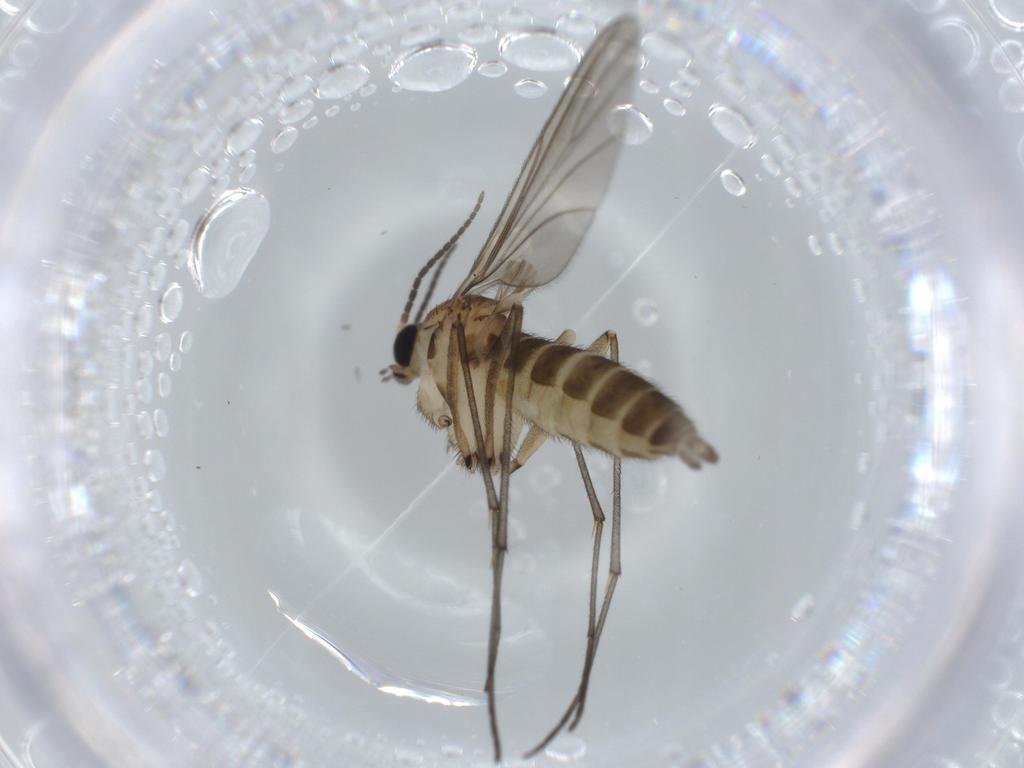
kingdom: Animalia
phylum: Arthropoda
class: Insecta
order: Diptera
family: Sciaridae
